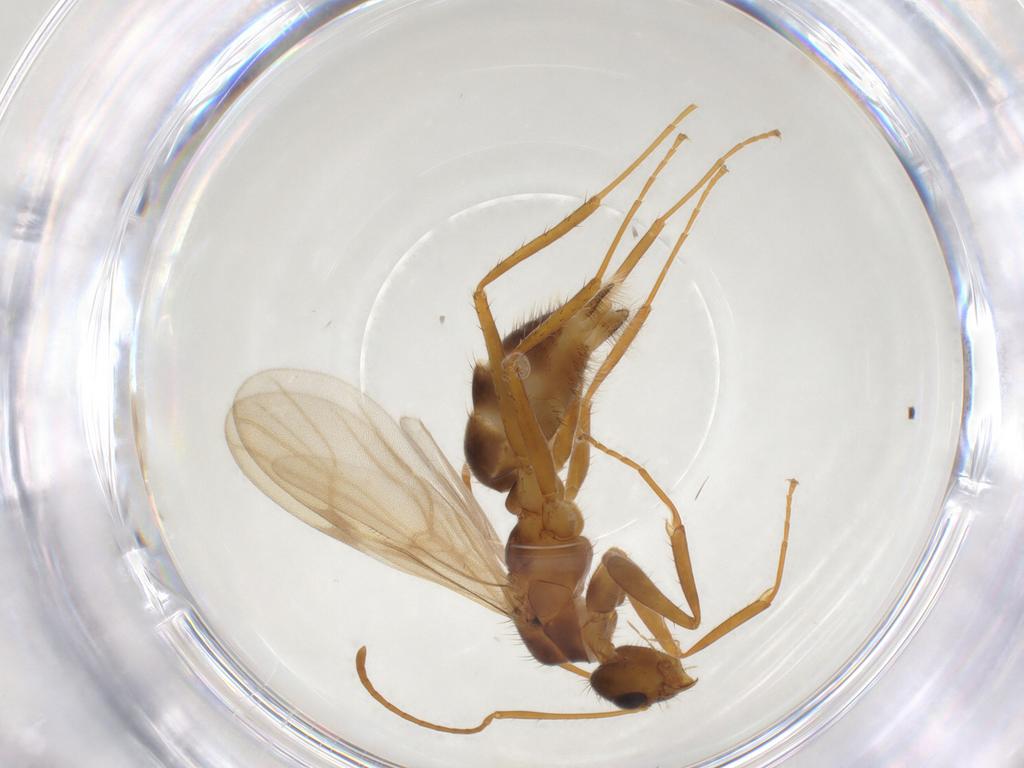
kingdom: Animalia
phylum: Arthropoda
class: Insecta
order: Hymenoptera
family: Formicidae
